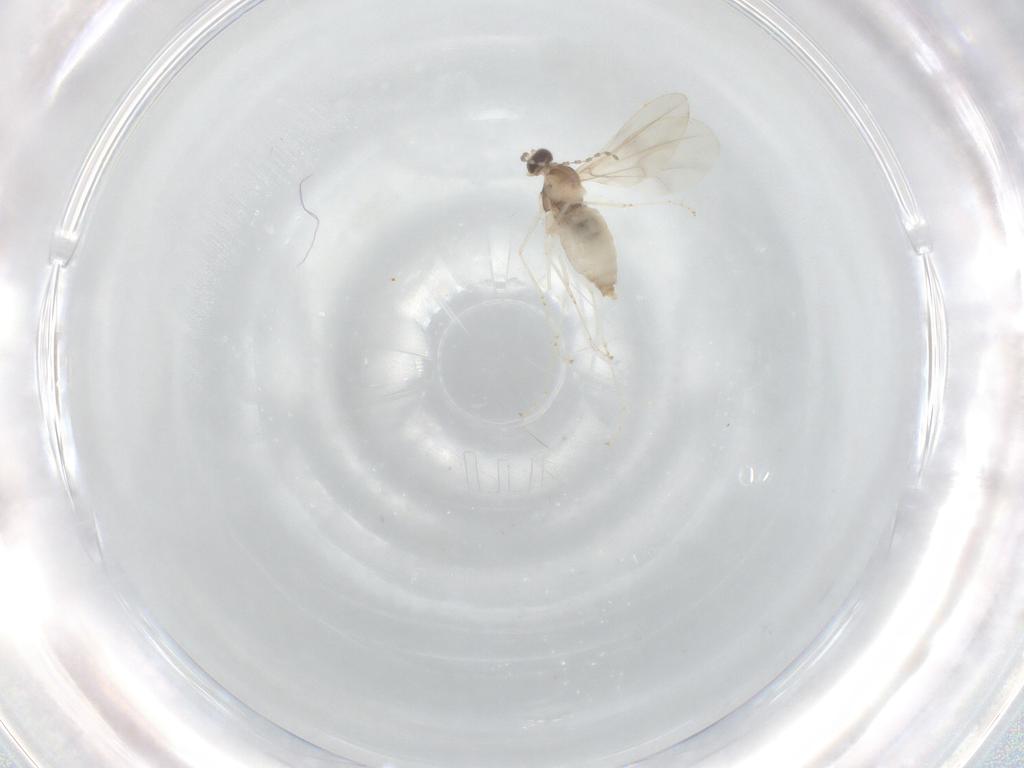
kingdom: Animalia
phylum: Arthropoda
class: Insecta
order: Diptera
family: Cecidomyiidae
